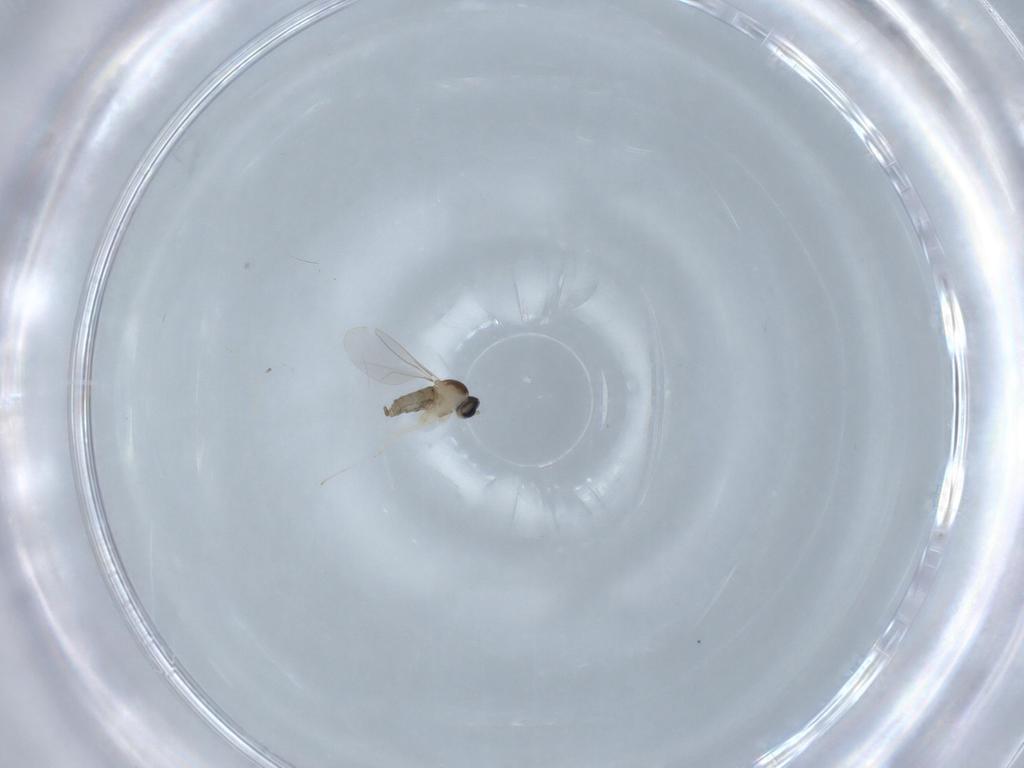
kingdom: Animalia
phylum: Arthropoda
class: Insecta
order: Diptera
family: Cecidomyiidae
